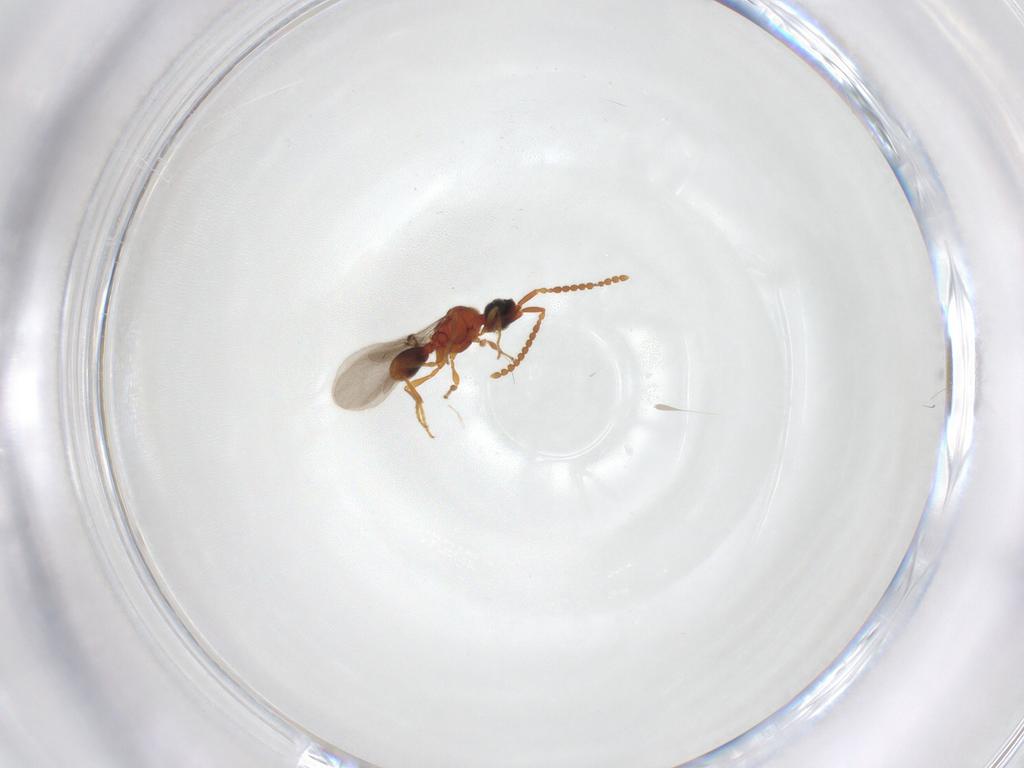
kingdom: Animalia
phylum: Arthropoda
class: Insecta
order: Hymenoptera
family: Diapriidae
